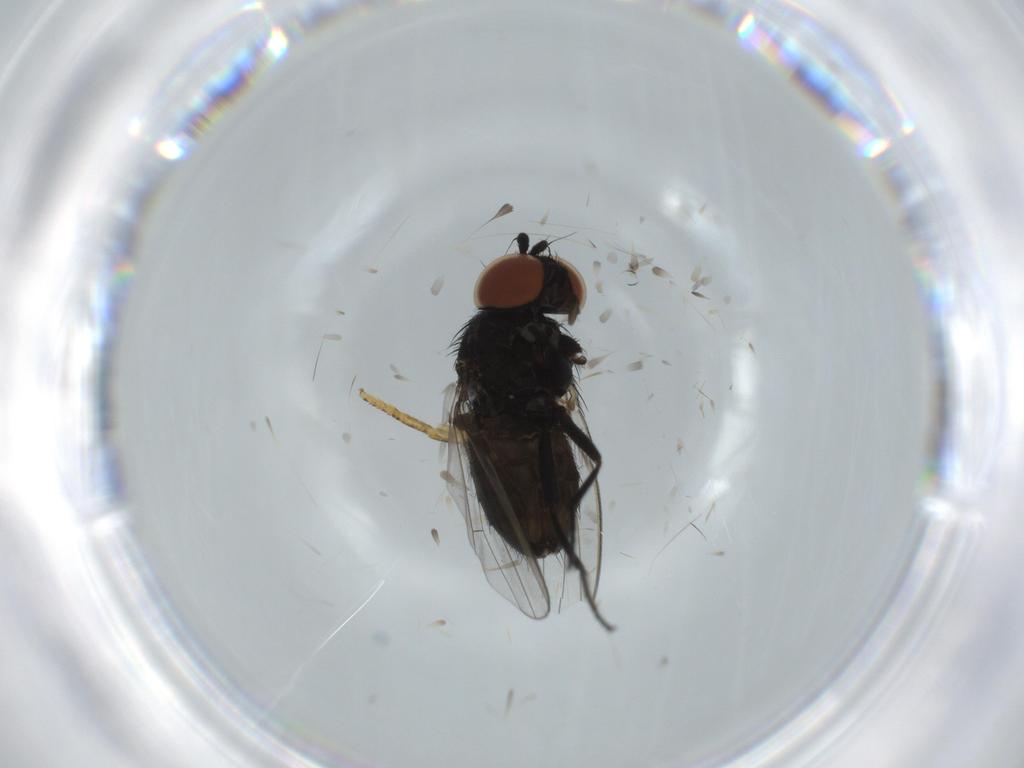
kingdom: Animalia
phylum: Arthropoda
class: Insecta
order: Diptera
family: Milichiidae
